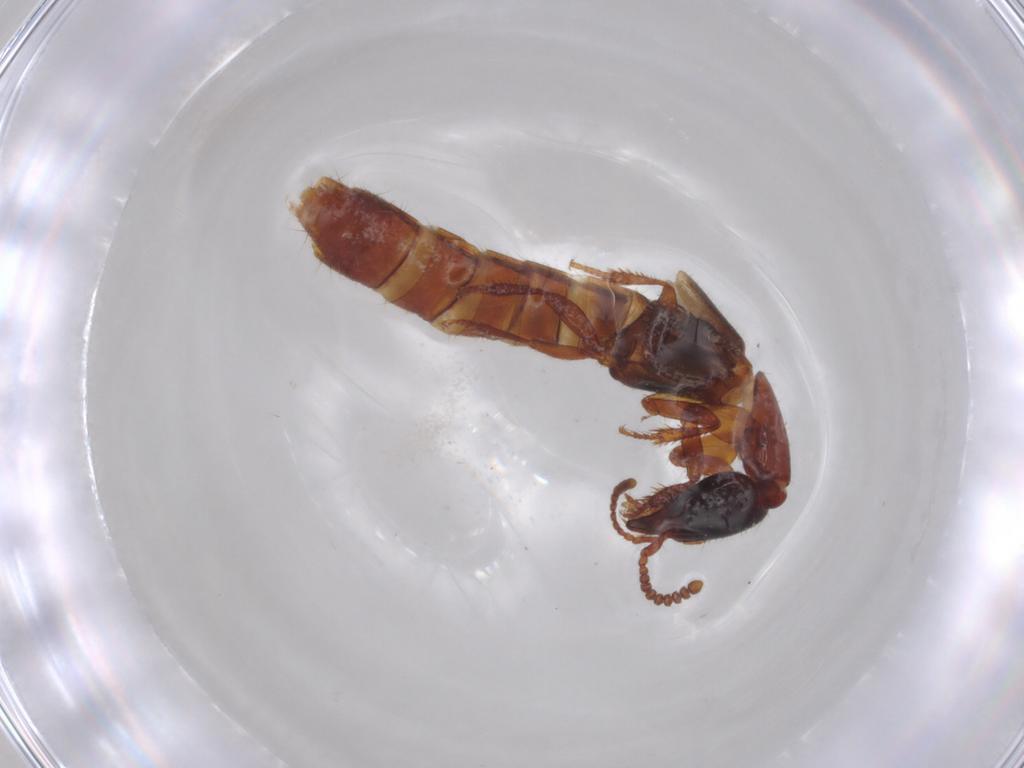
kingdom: Animalia
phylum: Arthropoda
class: Insecta
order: Coleoptera
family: Staphylinidae
